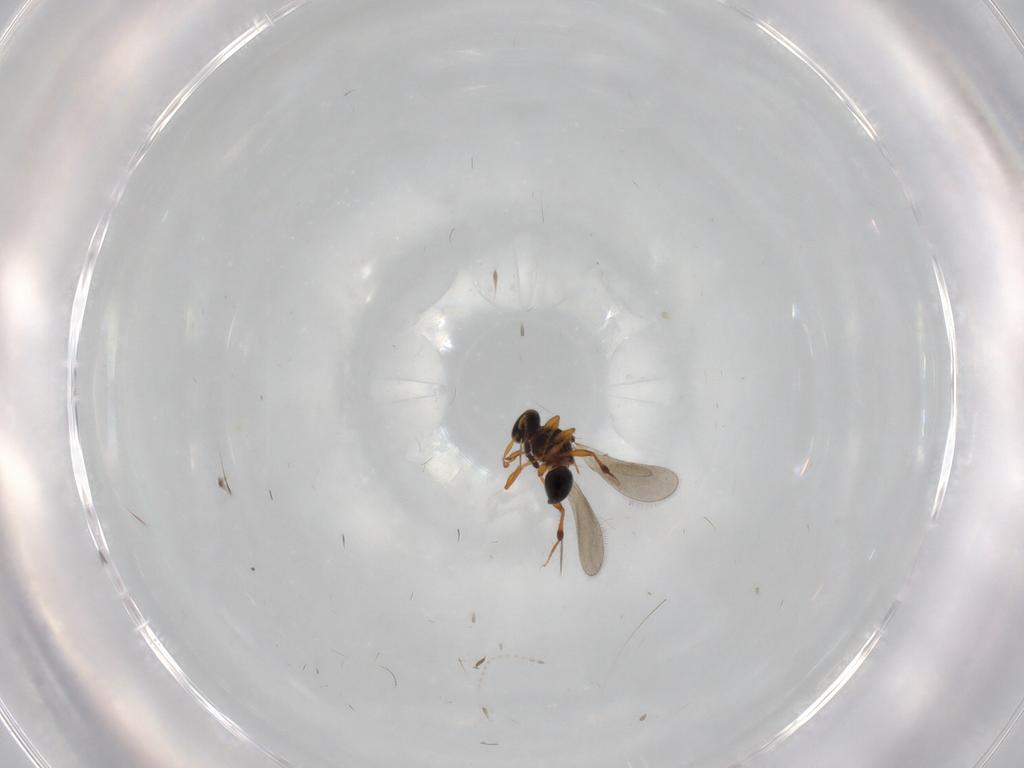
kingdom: Animalia
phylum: Arthropoda
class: Insecta
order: Hymenoptera
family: Platygastridae
